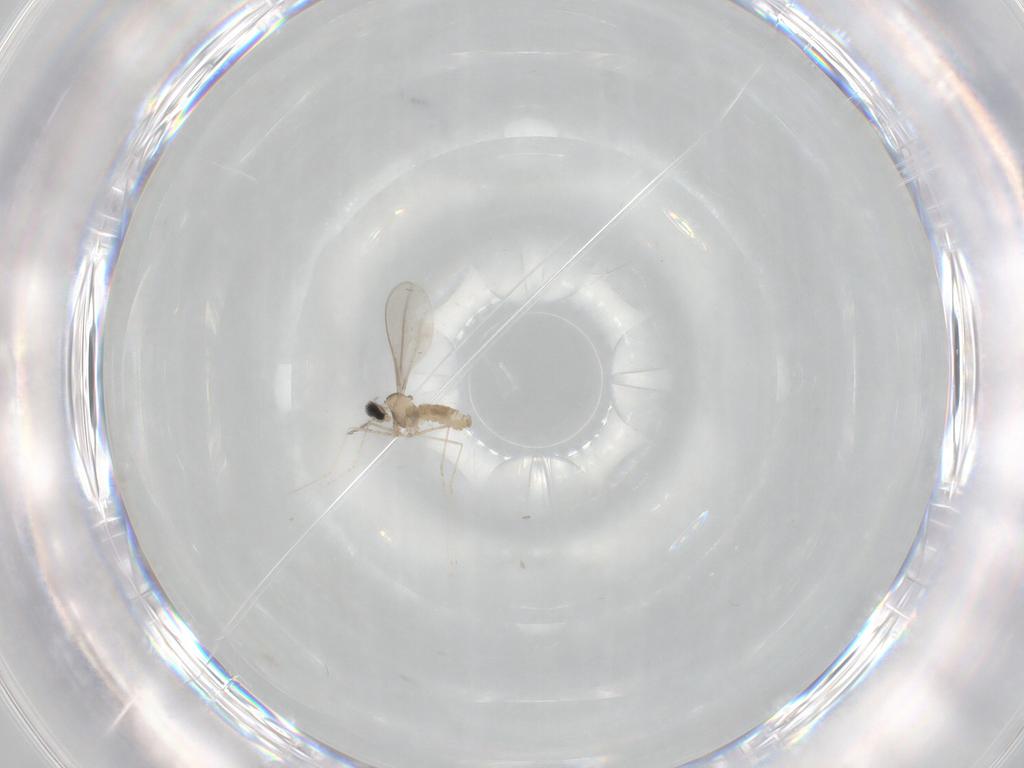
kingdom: Animalia
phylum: Arthropoda
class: Insecta
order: Diptera
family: Cecidomyiidae
